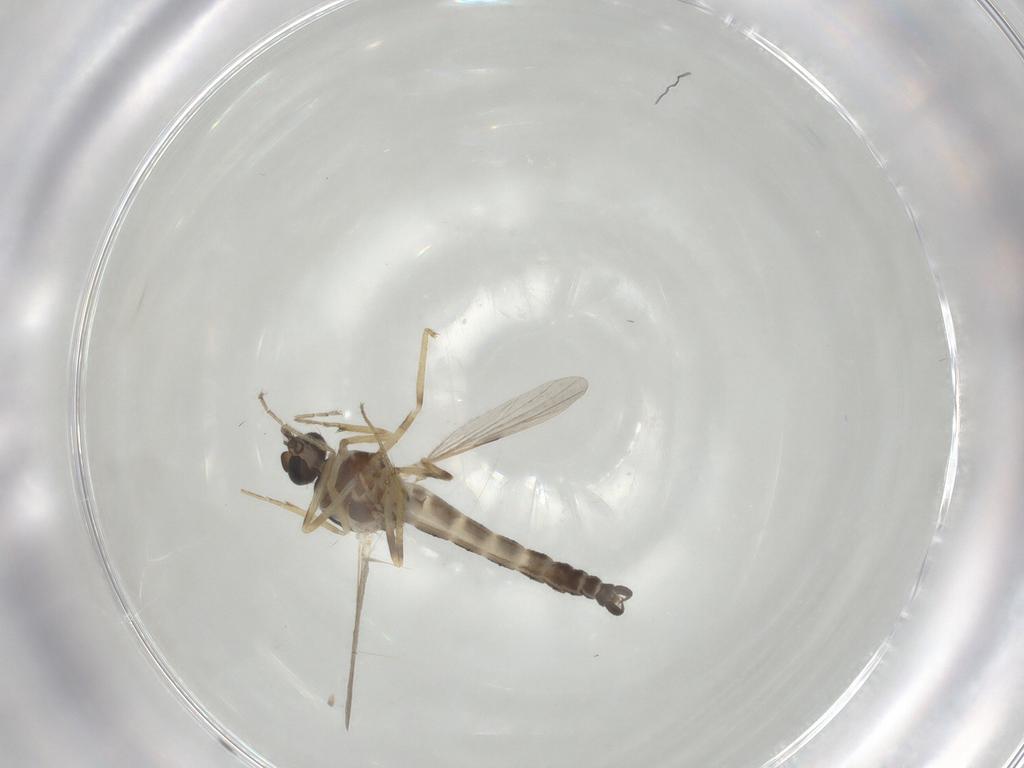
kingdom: Animalia
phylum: Arthropoda
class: Insecta
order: Diptera
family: Ceratopogonidae
